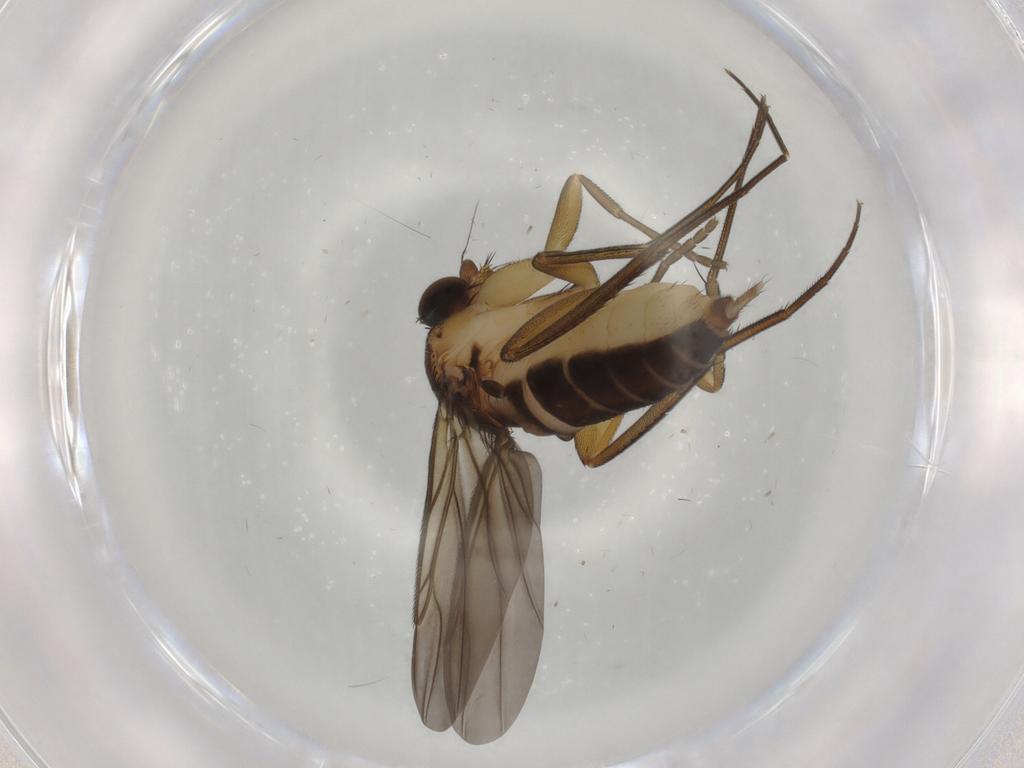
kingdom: Animalia
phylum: Arthropoda
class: Insecta
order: Diptera
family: Phoridae
